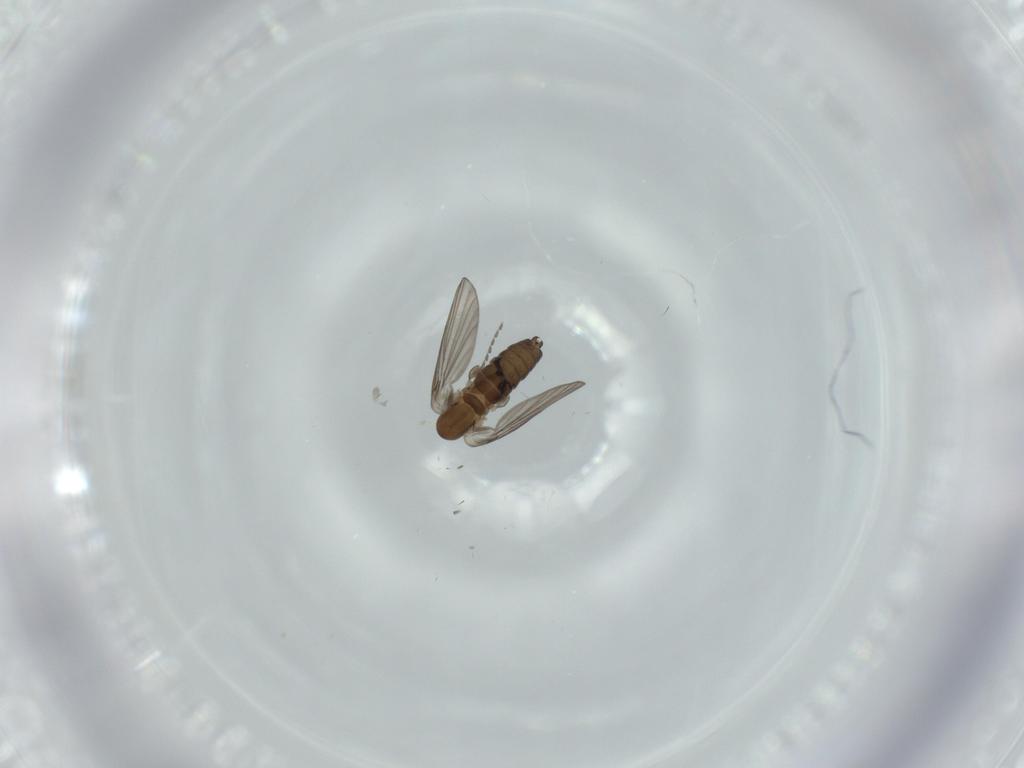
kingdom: Animalia
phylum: Arthropoda
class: Insecta
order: Diptera
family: Psychodidae
